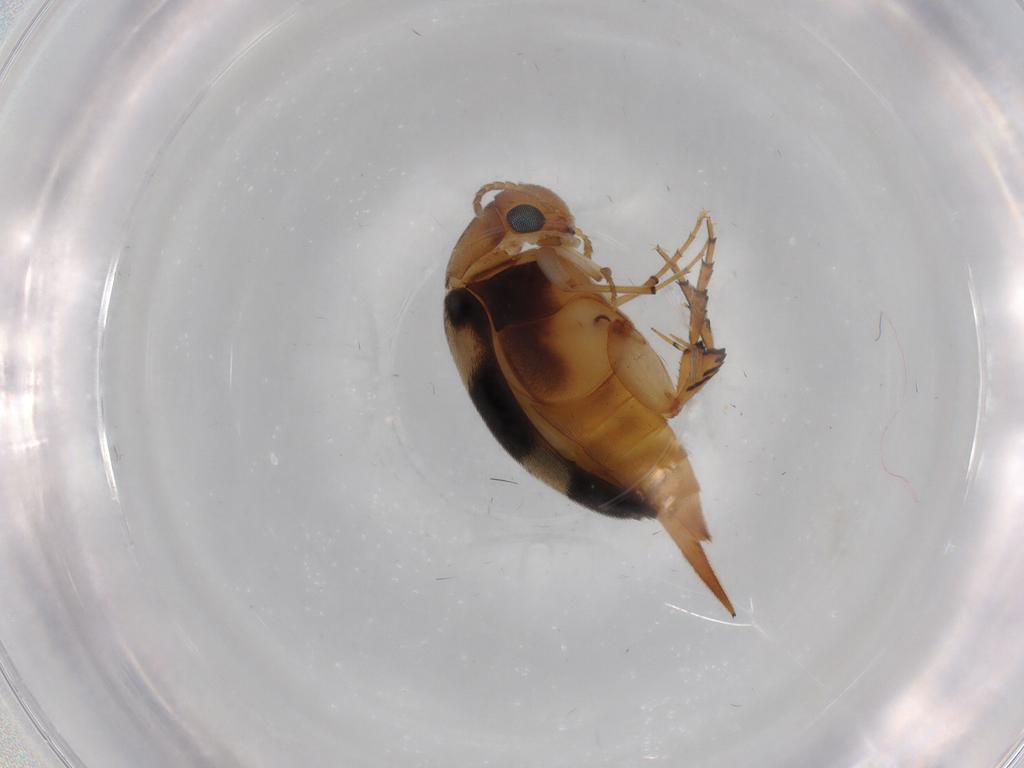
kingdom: Animalia
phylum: Arthropoda
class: Insecta
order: Coleoptera
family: Mordellidae
